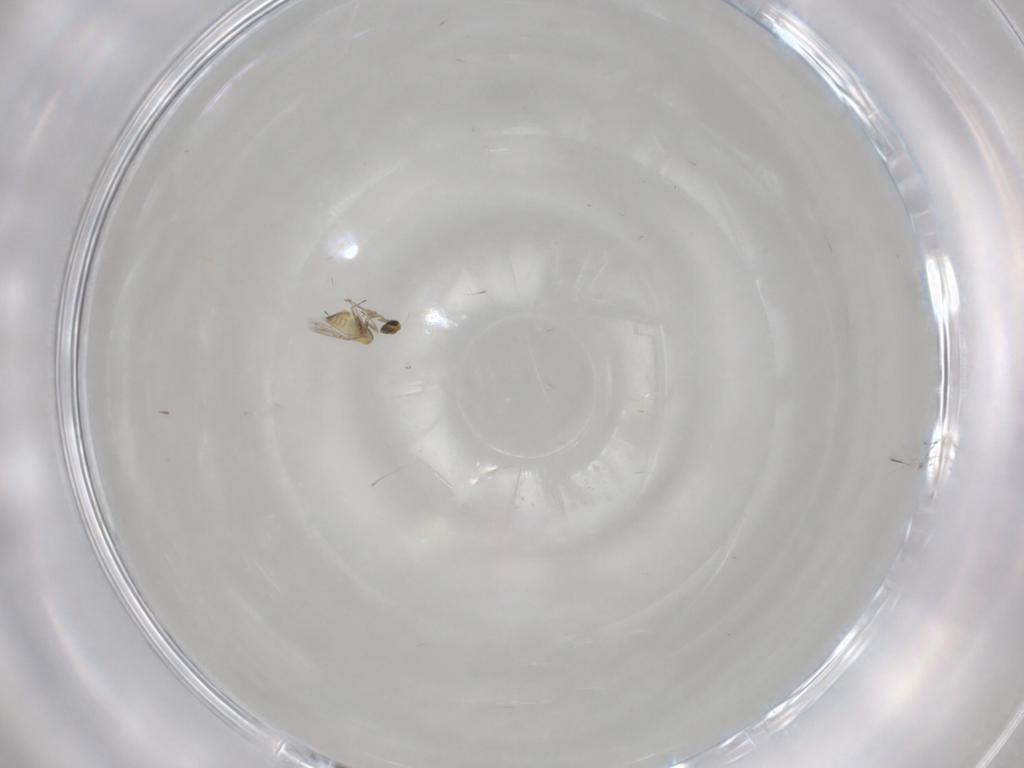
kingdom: Animalia
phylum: Arthropoda
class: Insecta
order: Hymenoptera
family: Trichogrammatidae
